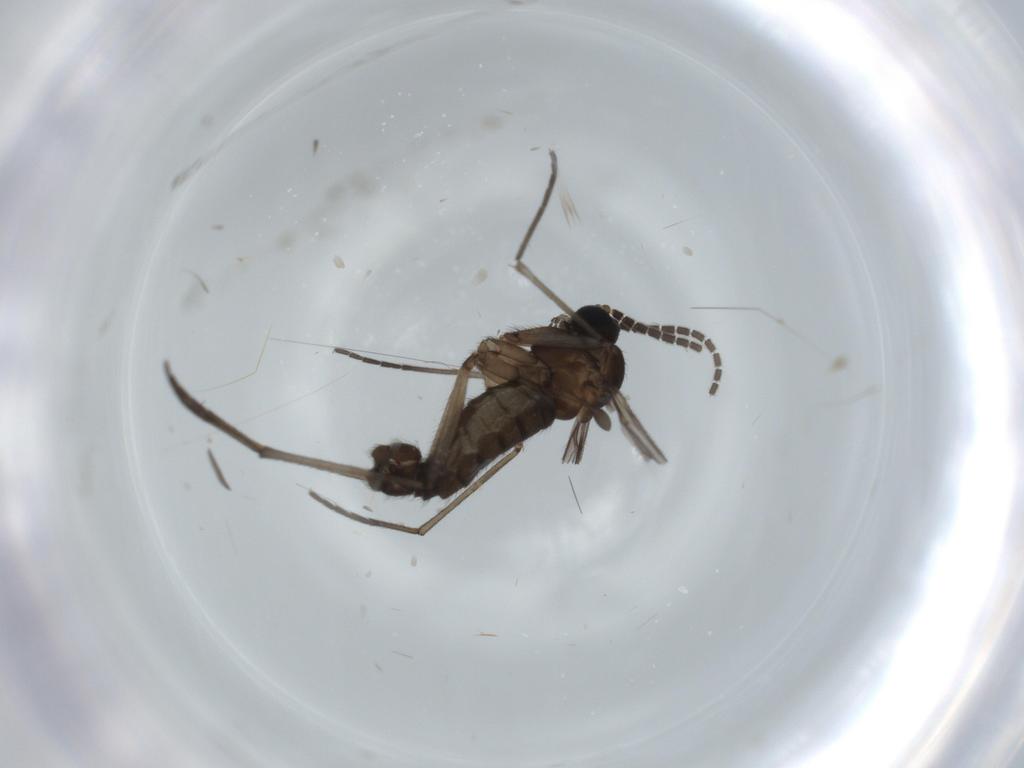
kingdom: Animalia
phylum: Arthropoda
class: Insecta
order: Diptera
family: Sciaridae
